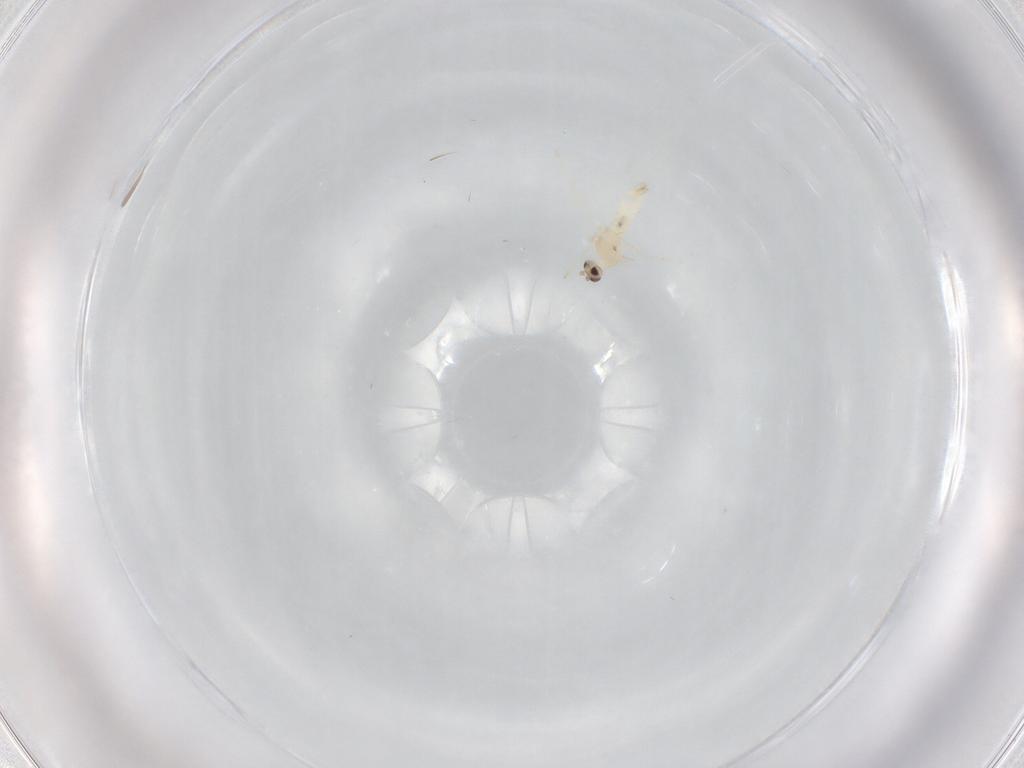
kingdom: Animalia
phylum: Arthropoda
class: Insecta
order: Diptera
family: Cecidomyiidae
